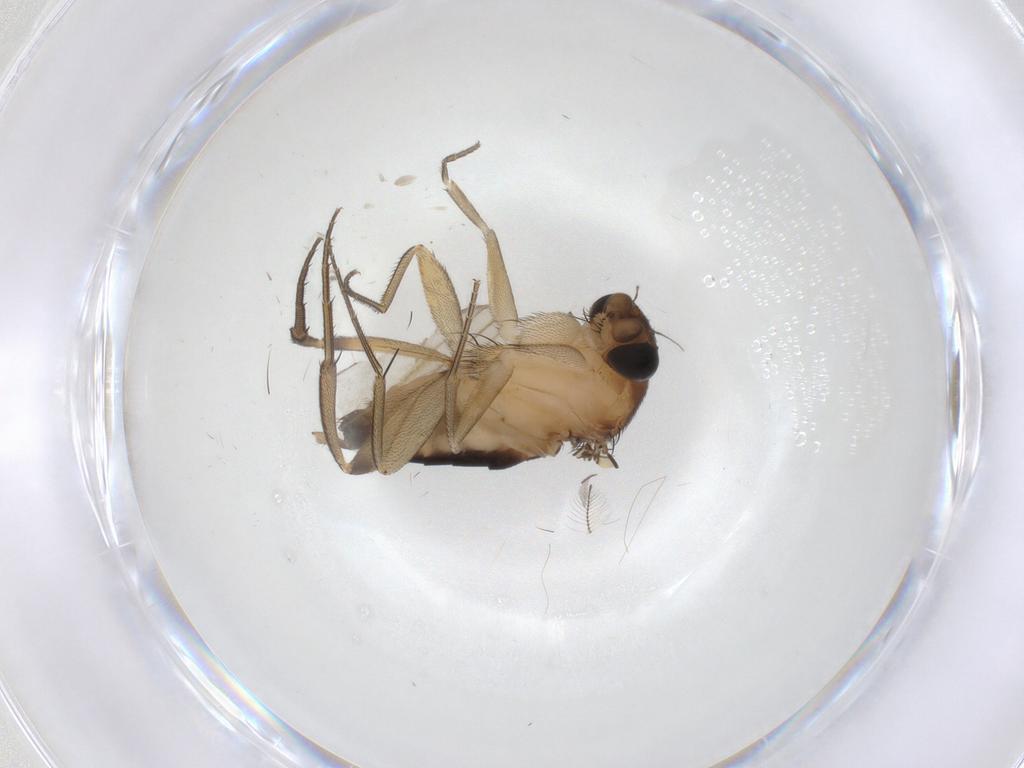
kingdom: Animalia
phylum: Arthropoda
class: Insecta
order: Diptera
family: Phoridae
